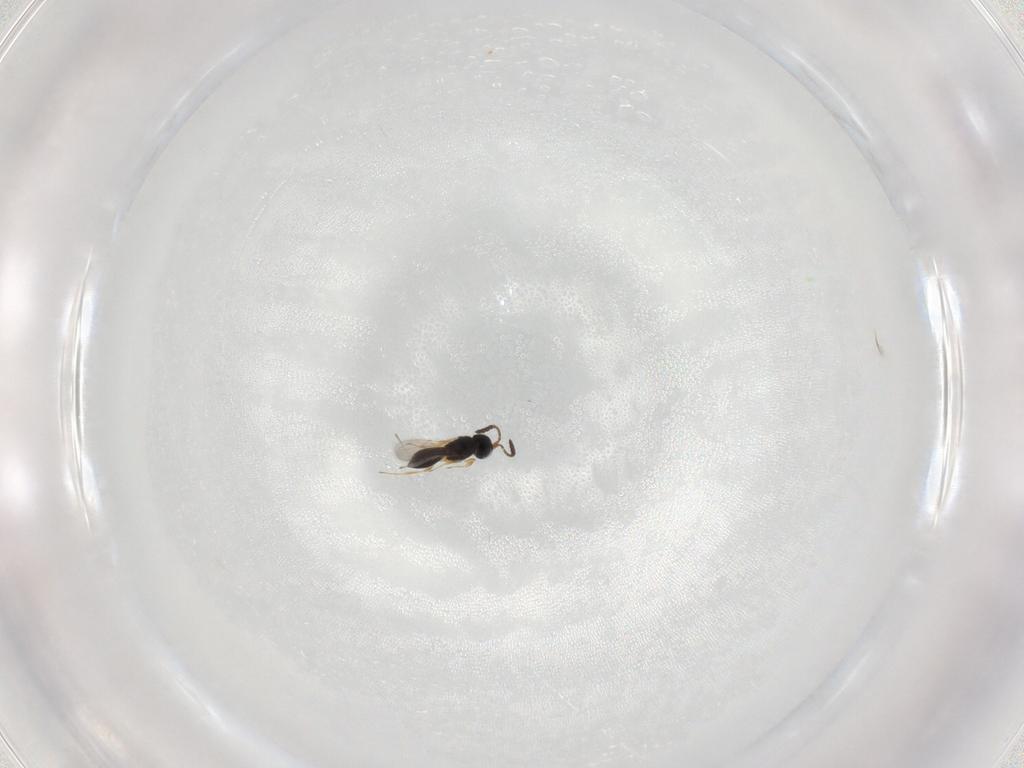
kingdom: Animalia
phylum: Arthropoda
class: Insecta
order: Hymenoptera
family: Scelionidae
